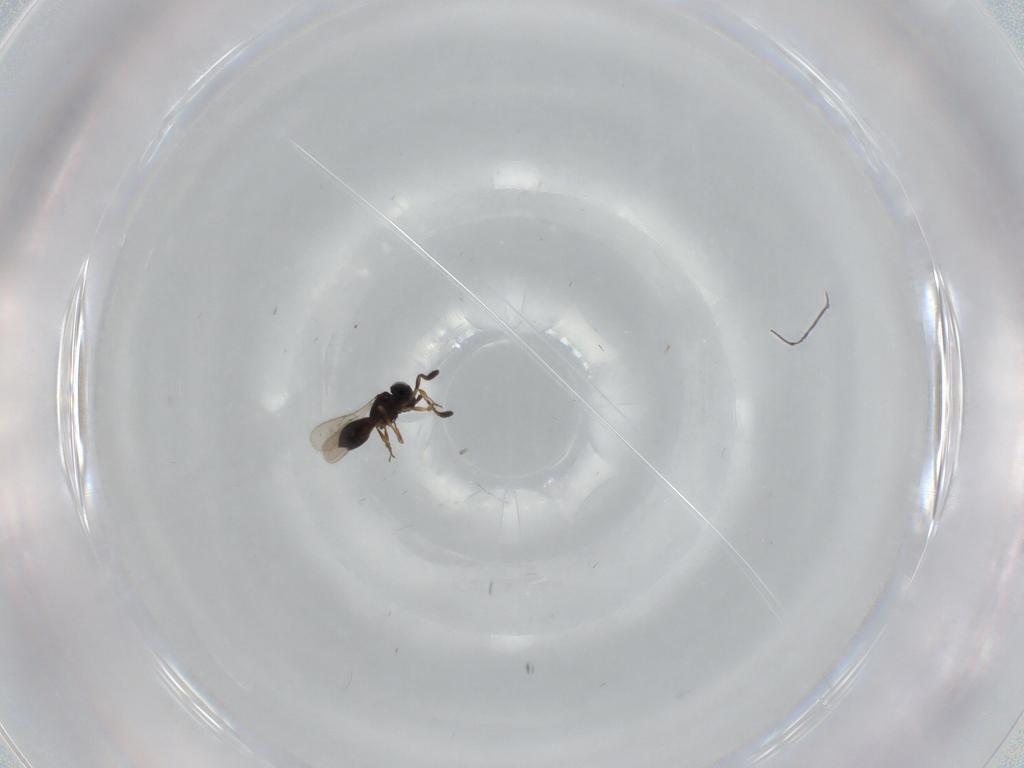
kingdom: Animalia
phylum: Arthropoda
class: Insecta
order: Hymenoptera
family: Scelionidae
